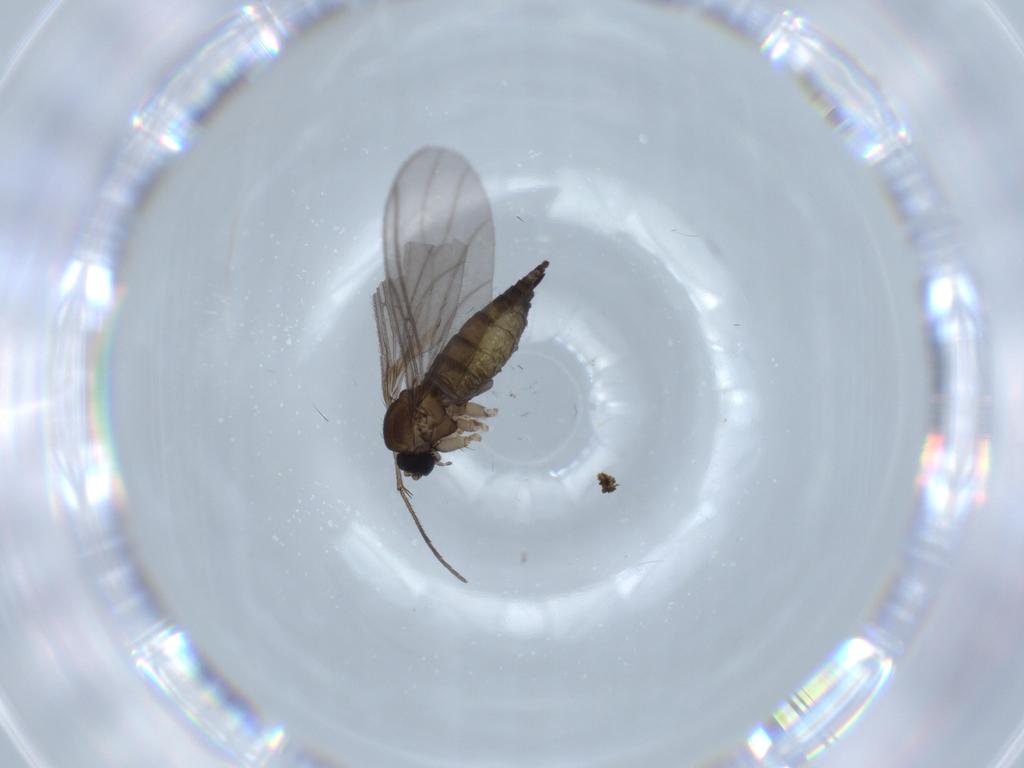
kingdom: Animalia
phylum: Arthropoda
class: Insecta
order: Diptera
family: Sciaridae
